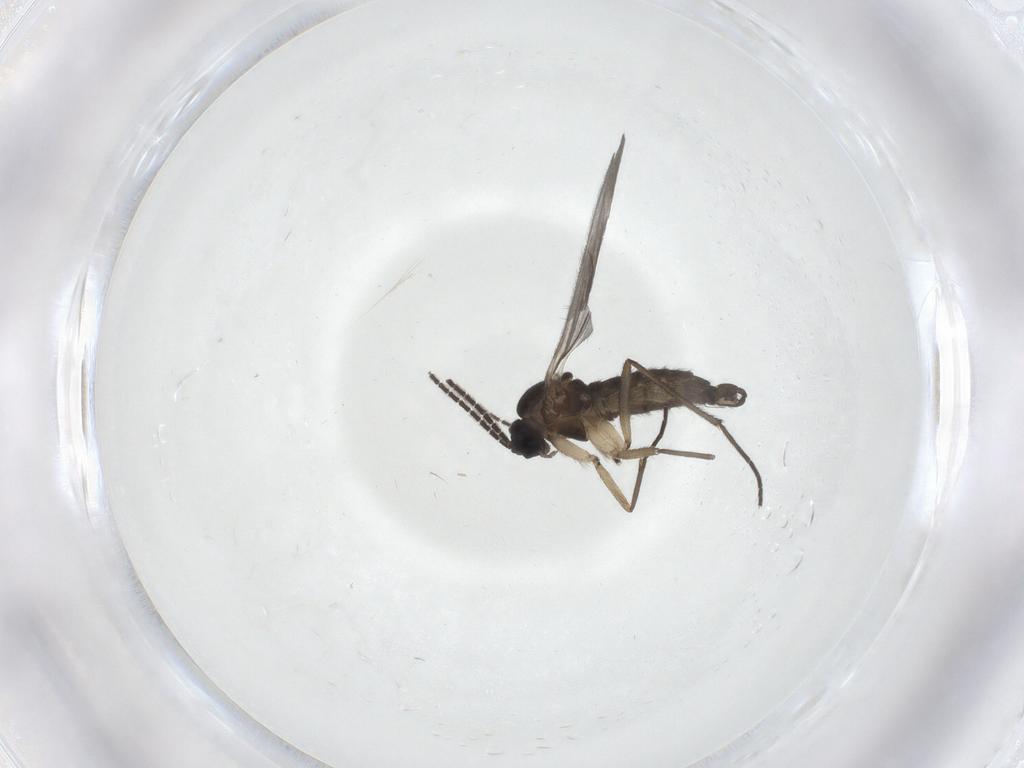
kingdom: Animalia
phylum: Arthropoda
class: Insecta
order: Diptera
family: Sciaridae
